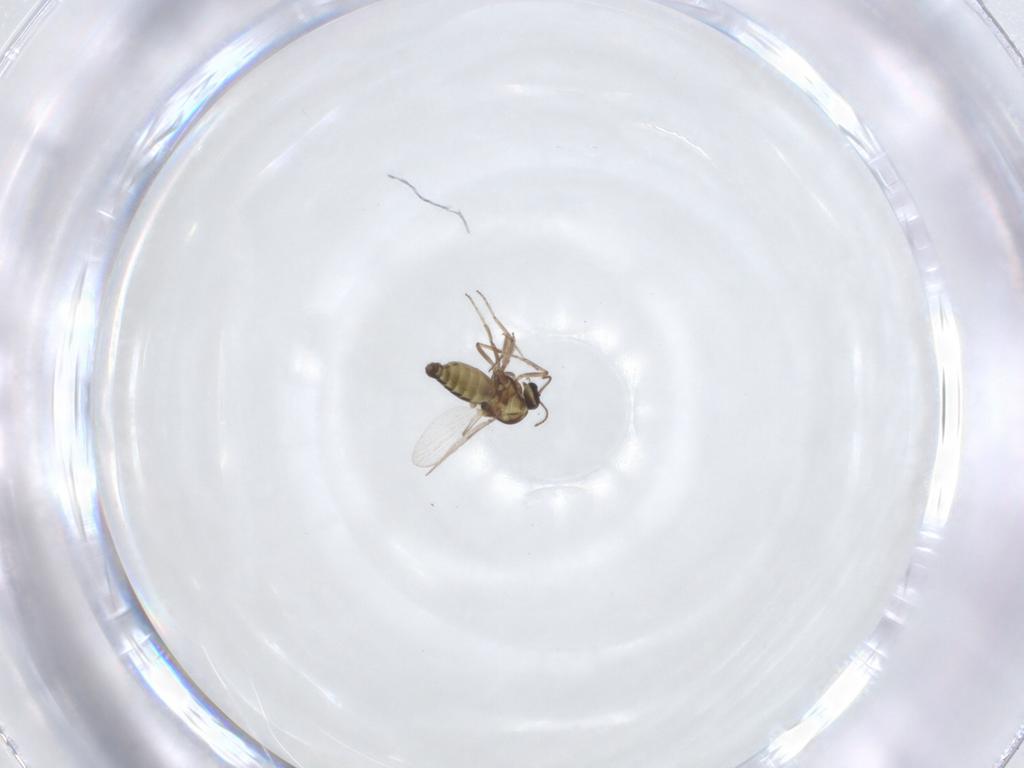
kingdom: Animalia
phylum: Arthropoda
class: Insecta
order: Diptera
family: Ceratopogonidae
